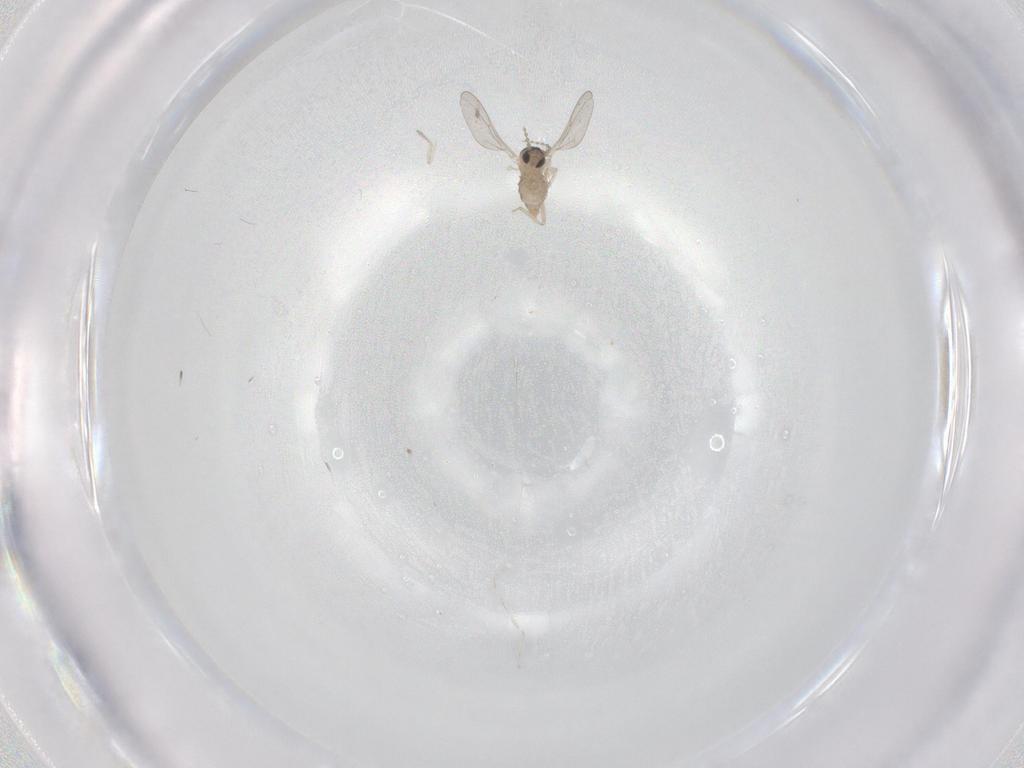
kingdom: Animalia
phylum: Arthropoda
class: Insecta
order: Diptera
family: Cecidomyiidae
